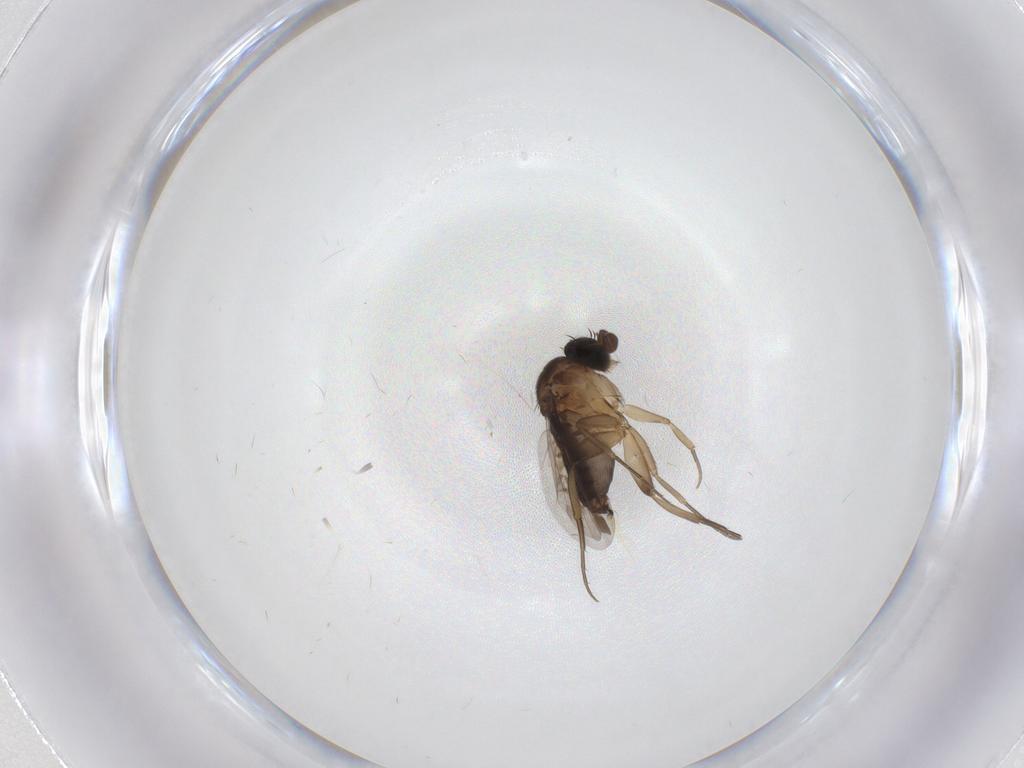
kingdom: Animalia
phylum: Arthropoda
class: Insecta
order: Diptera
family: Phoridae
